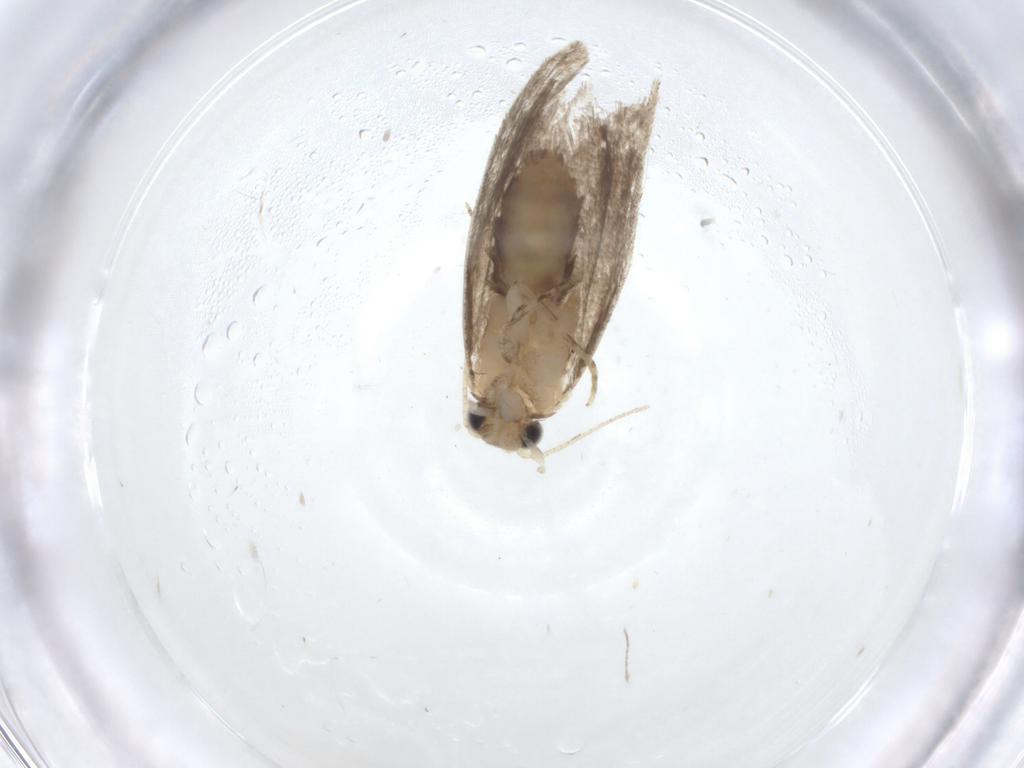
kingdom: Animalia
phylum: Arthropoda
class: Insecta
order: Lepidoptera
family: Tineidae
